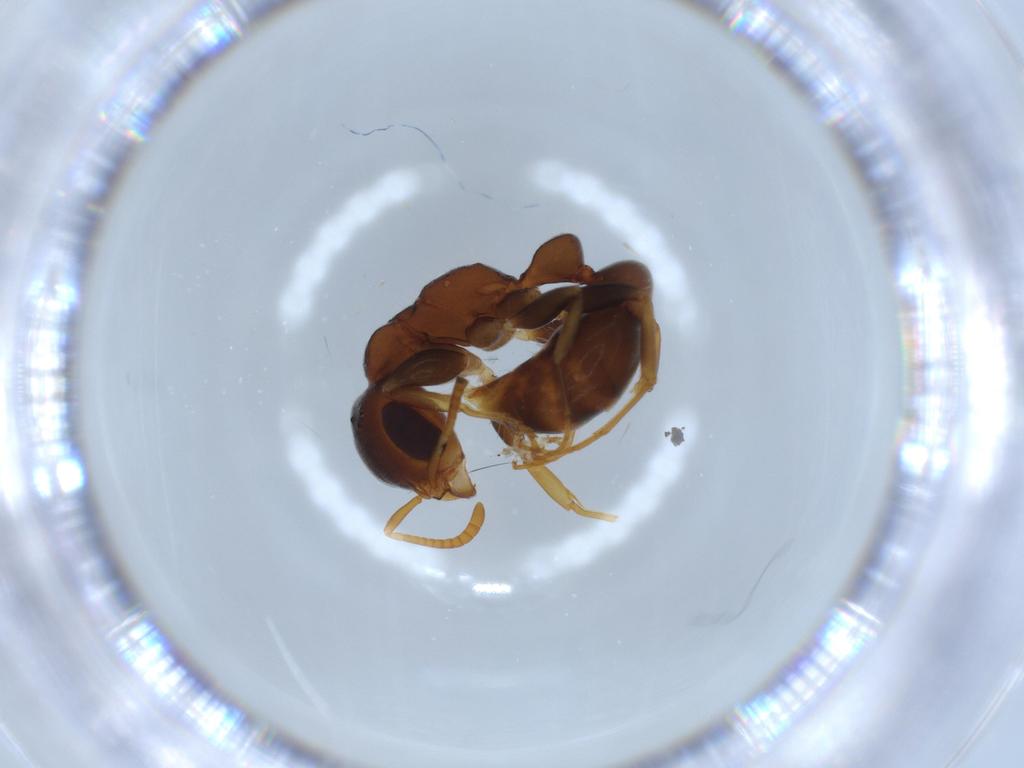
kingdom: Animalia
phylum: Arthropoda
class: Insecta
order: Hymenoptera
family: Formicidae
